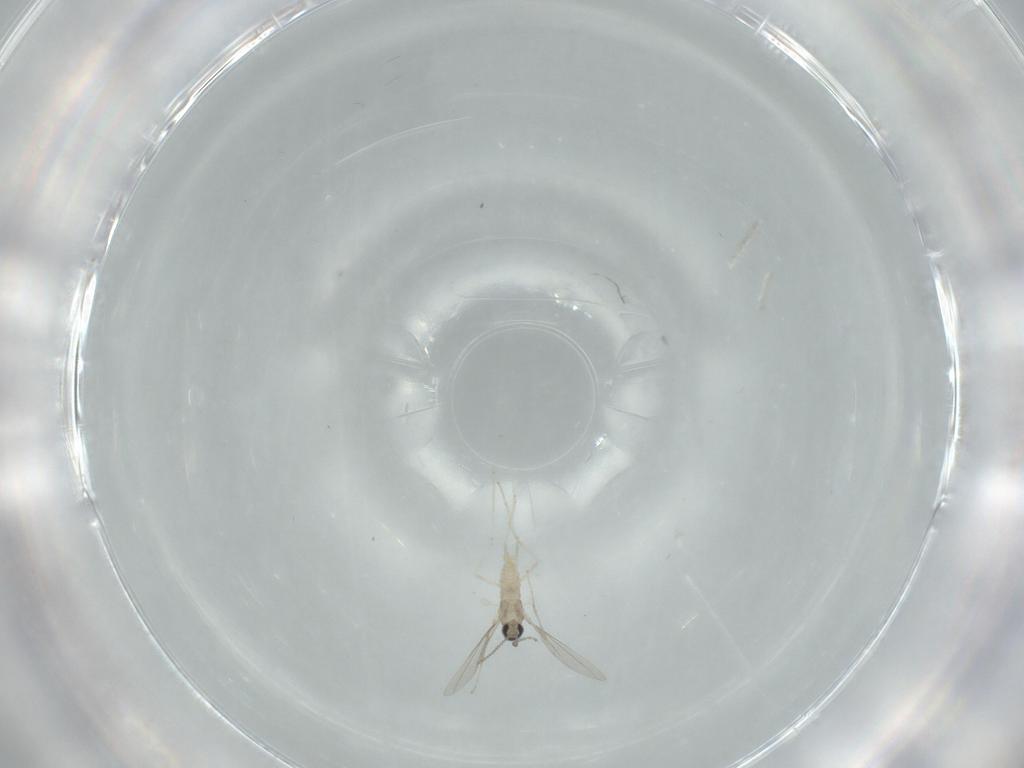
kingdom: Animalia
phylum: Arthropoda
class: Insecta
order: Diptera
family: Cecidomyiidae
